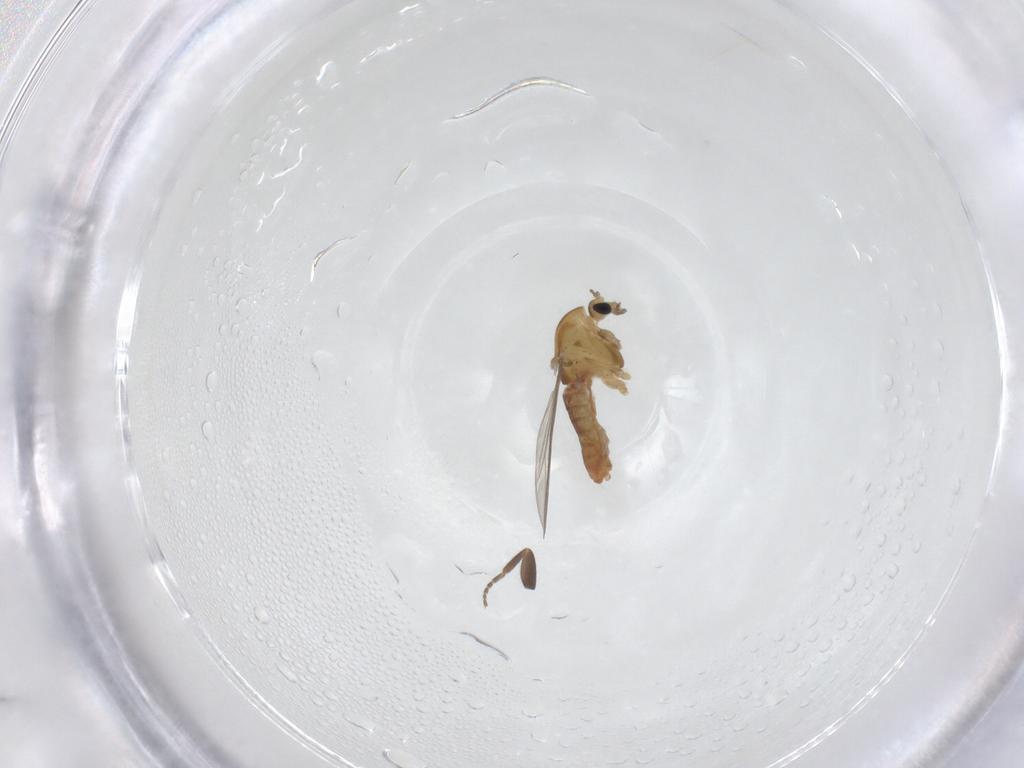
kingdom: Animalia
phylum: Arthropoda
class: Insecta
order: Diptera
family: Chironomidae
